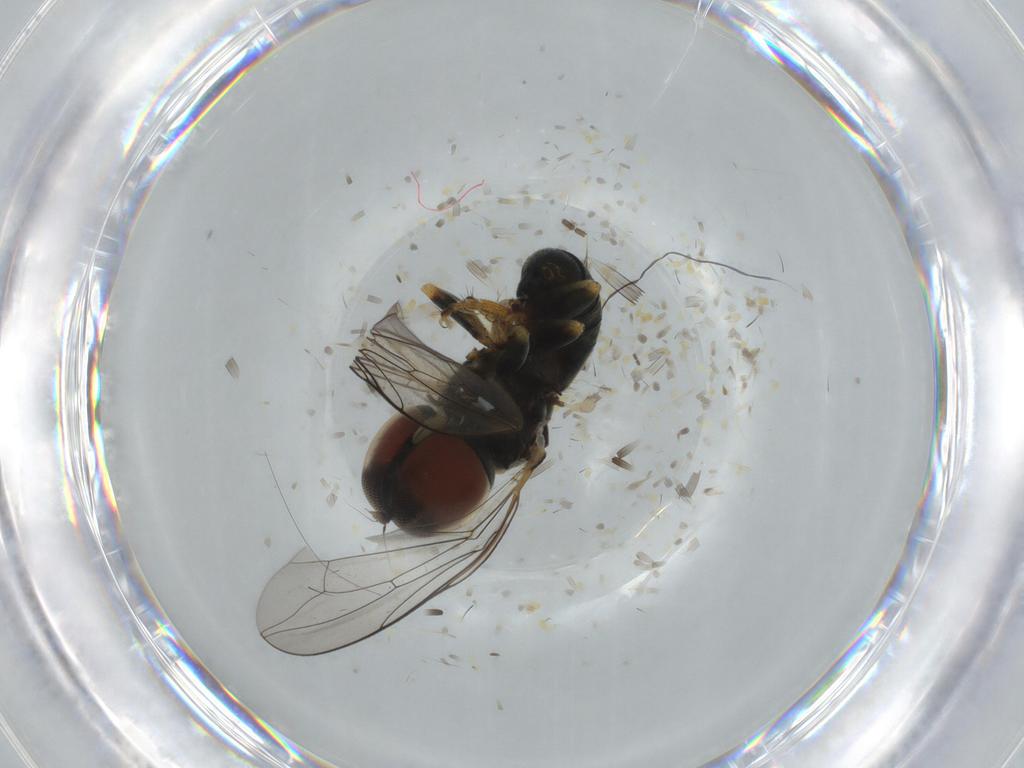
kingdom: Animalia
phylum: Arthropoda
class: Insecta
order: Diptera
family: Pipunculidae
